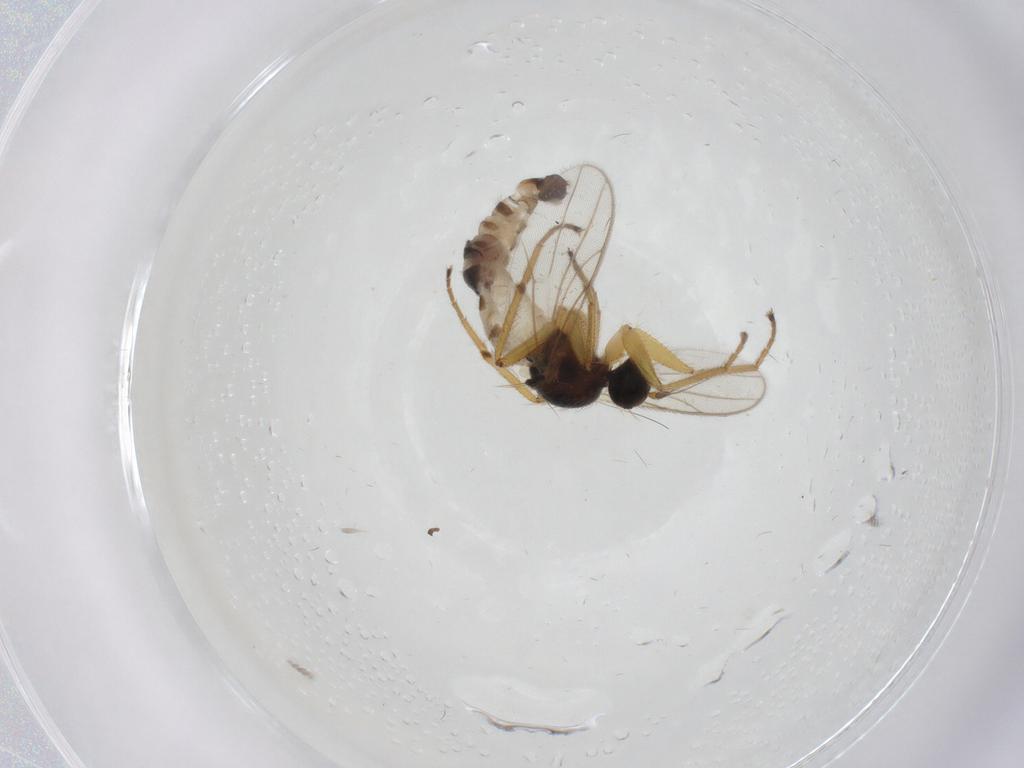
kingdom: Animalia
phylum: Arthropoda
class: Insecta
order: Diptera
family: Hybotidae
